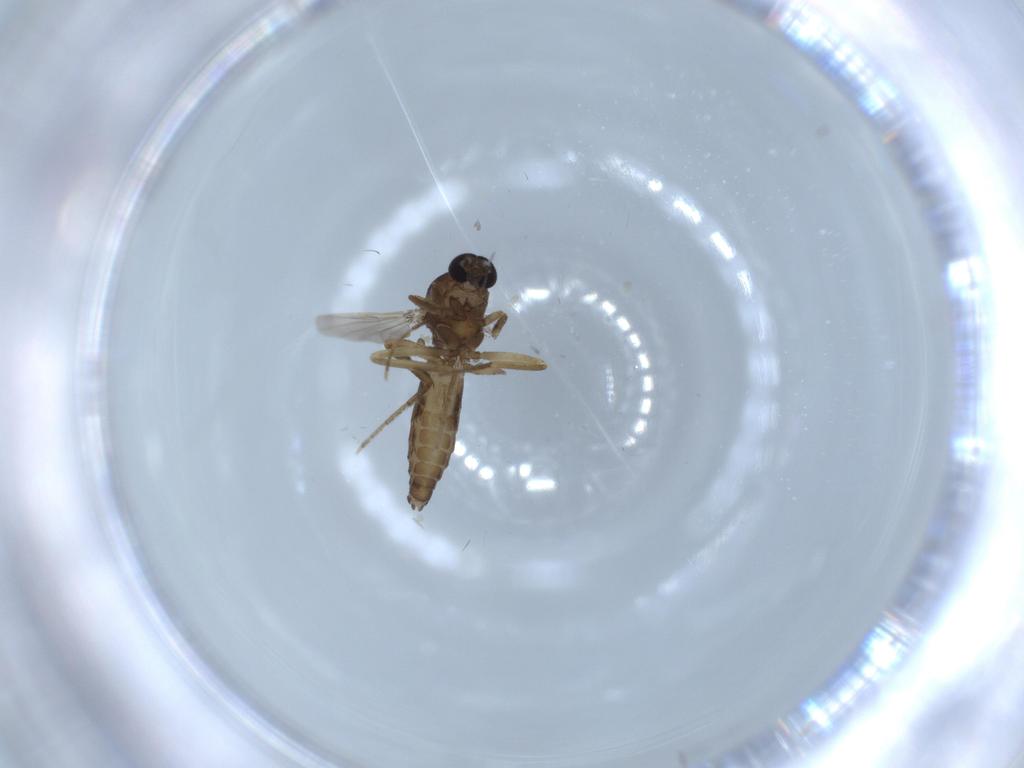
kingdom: Animalia
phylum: Arthropoda
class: Insecta
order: Diptera
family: Ceratopogonidae
